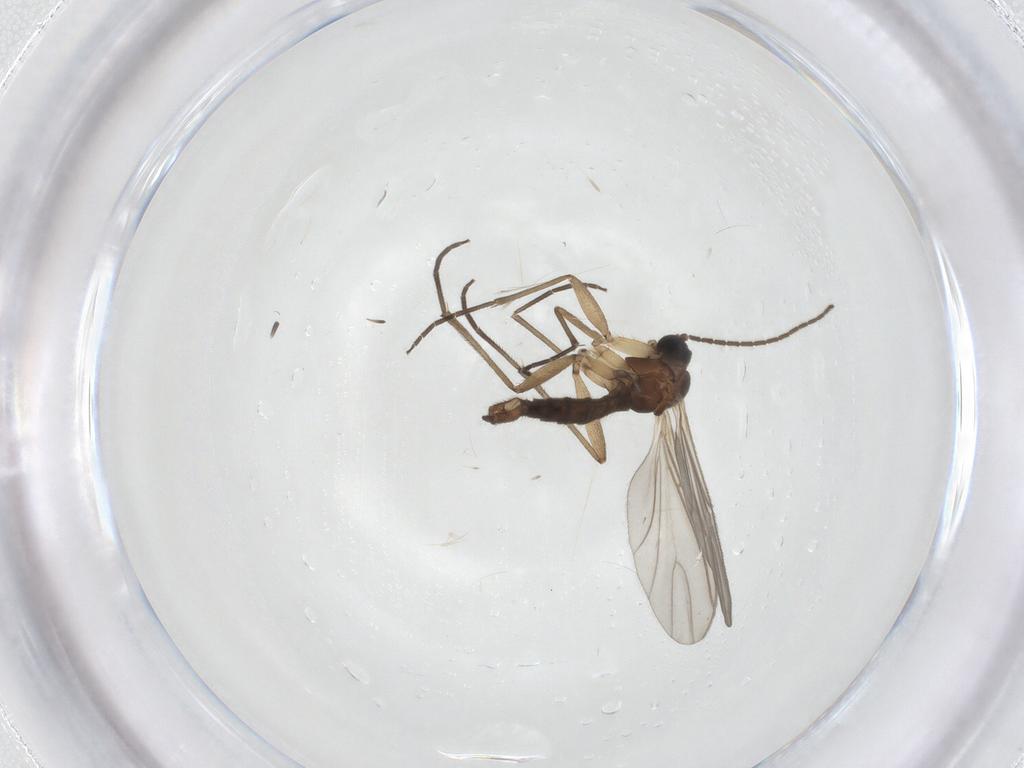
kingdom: Animalia
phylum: Arthropoda
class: Insecta
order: Diptera
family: Sciaridae
